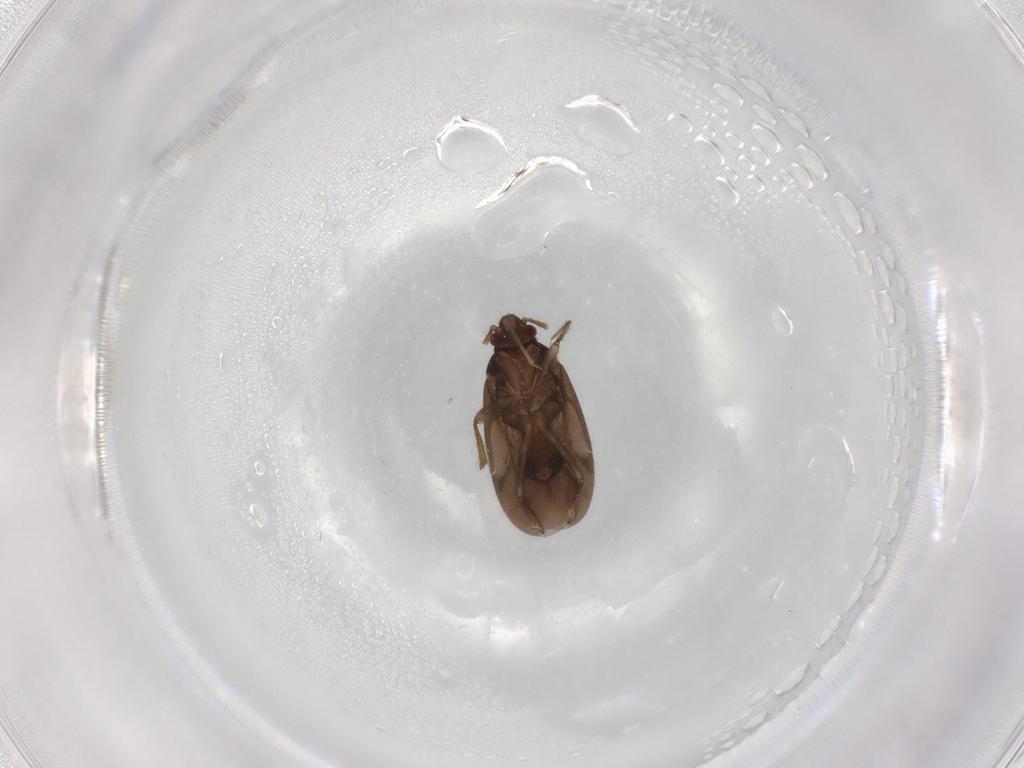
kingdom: Animalia
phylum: Arthropoda
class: Insecta
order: Hemiptera
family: Ceratocombidae
